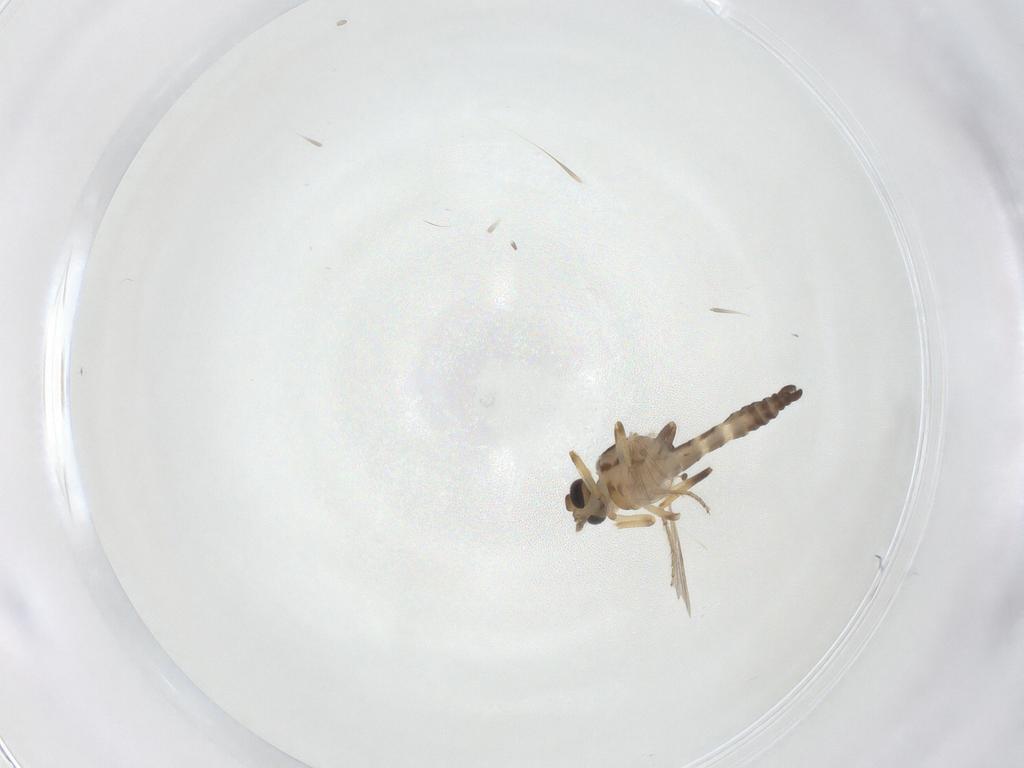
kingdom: Animalia
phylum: Arthropoda
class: Insecta
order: Diptera
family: Ceratopogonidae
